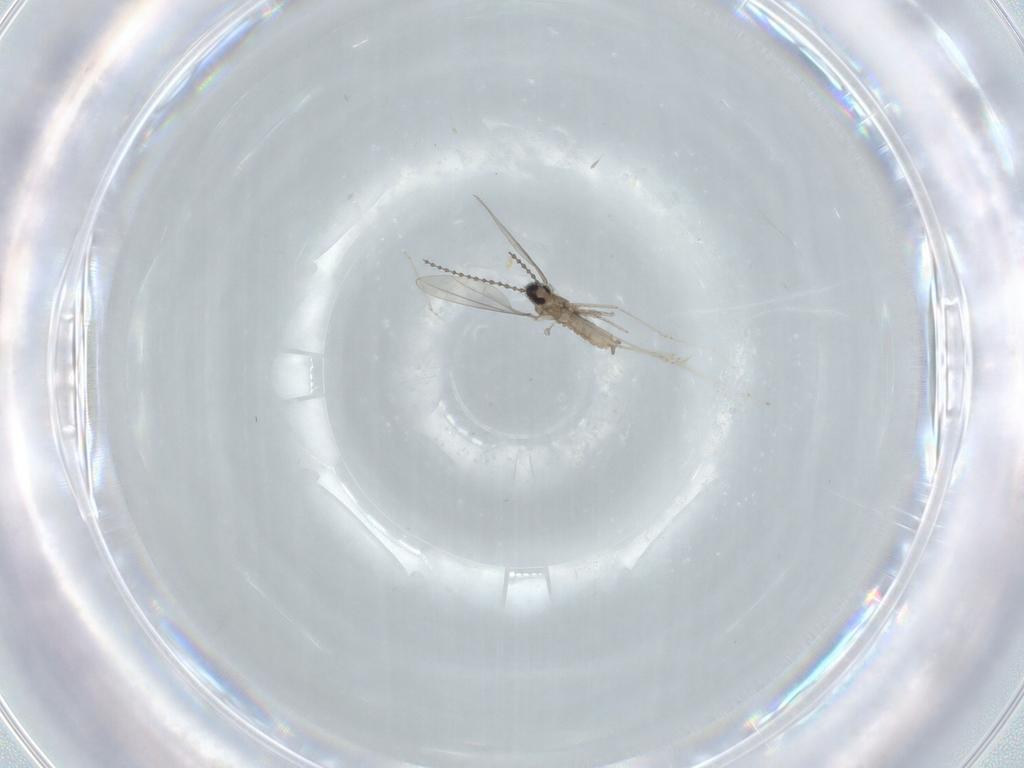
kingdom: Animalia
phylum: Arthropoda
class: Insecta
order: Diptera
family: Psychodidae
